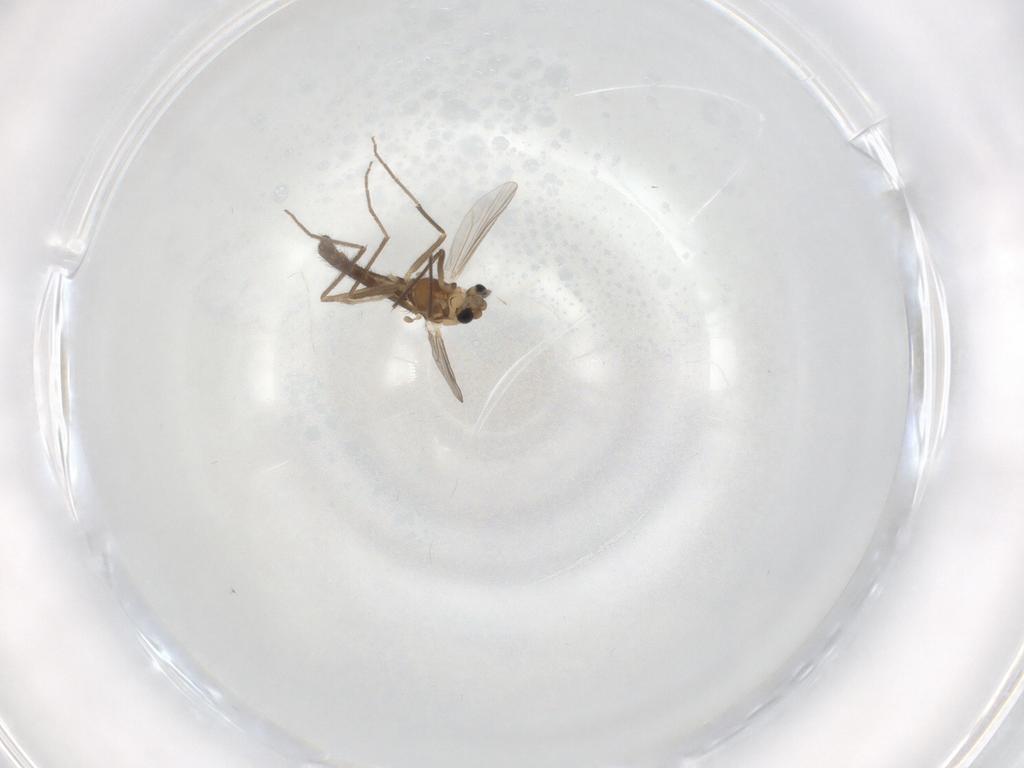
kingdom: Animalia
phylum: Arthropoda
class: Insecta
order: Diptera
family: Chironomidae
